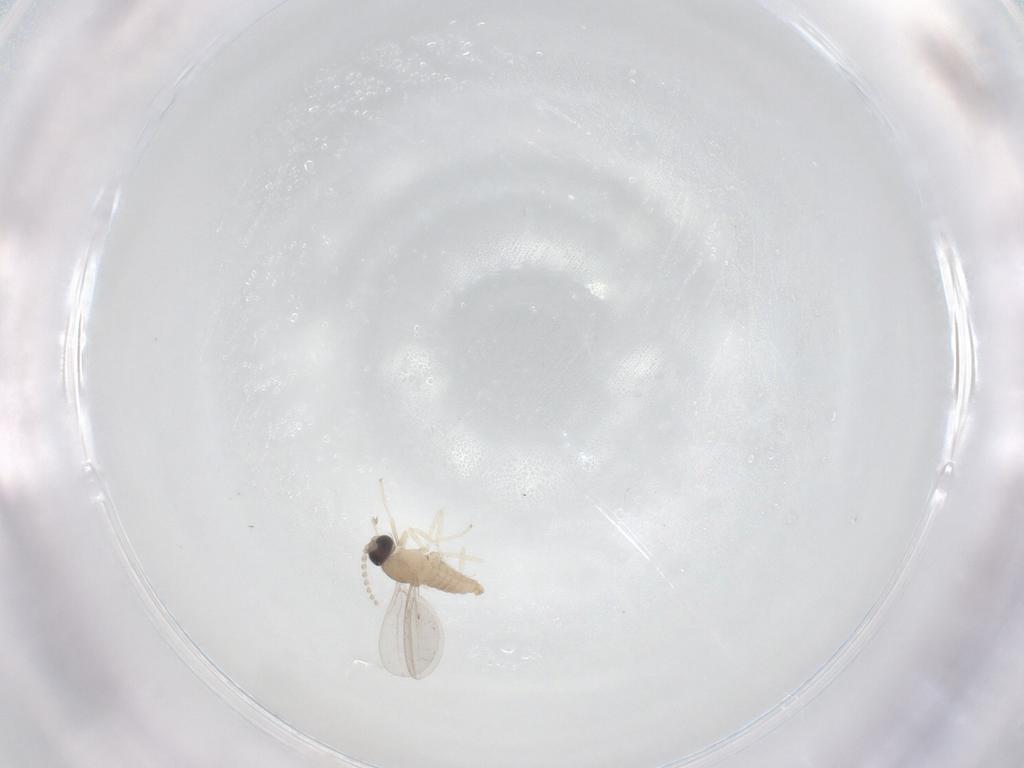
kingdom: Animalia
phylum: Arthropoda
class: Insecta
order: Diptera
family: Cecidomyiidae
